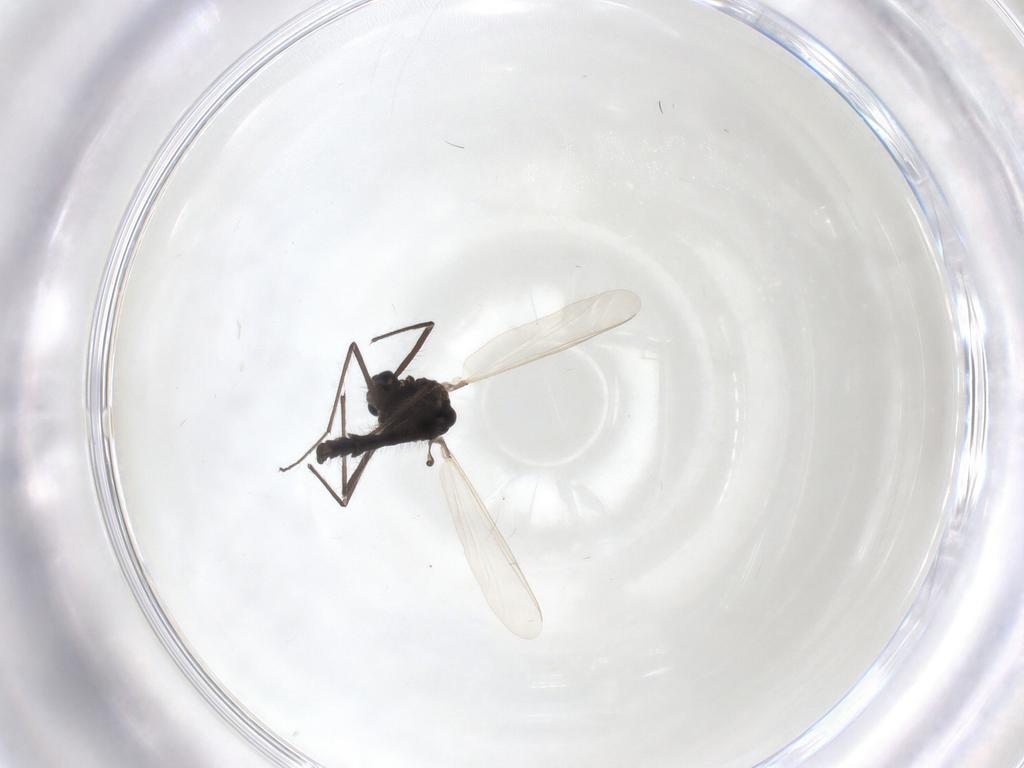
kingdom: Animalia
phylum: Arthropoda
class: Insecta
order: Diptera
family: Chironomidae
